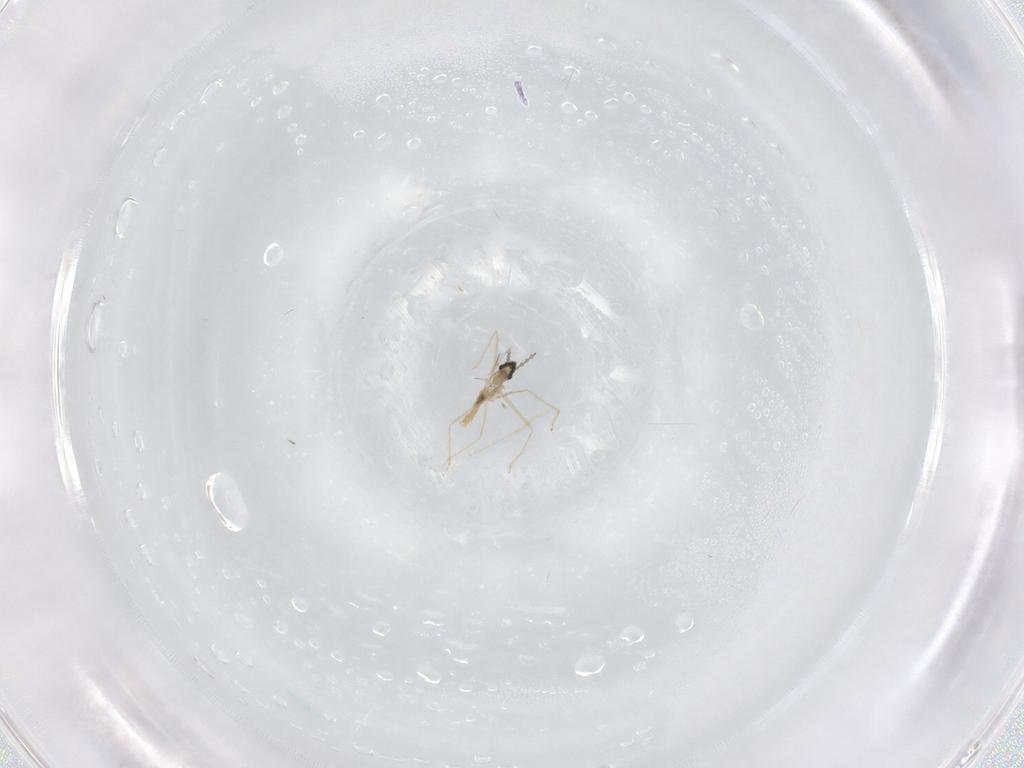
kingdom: Animalia
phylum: Arthropoda
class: Insecta
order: Diptera
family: Cecidomyiidae
